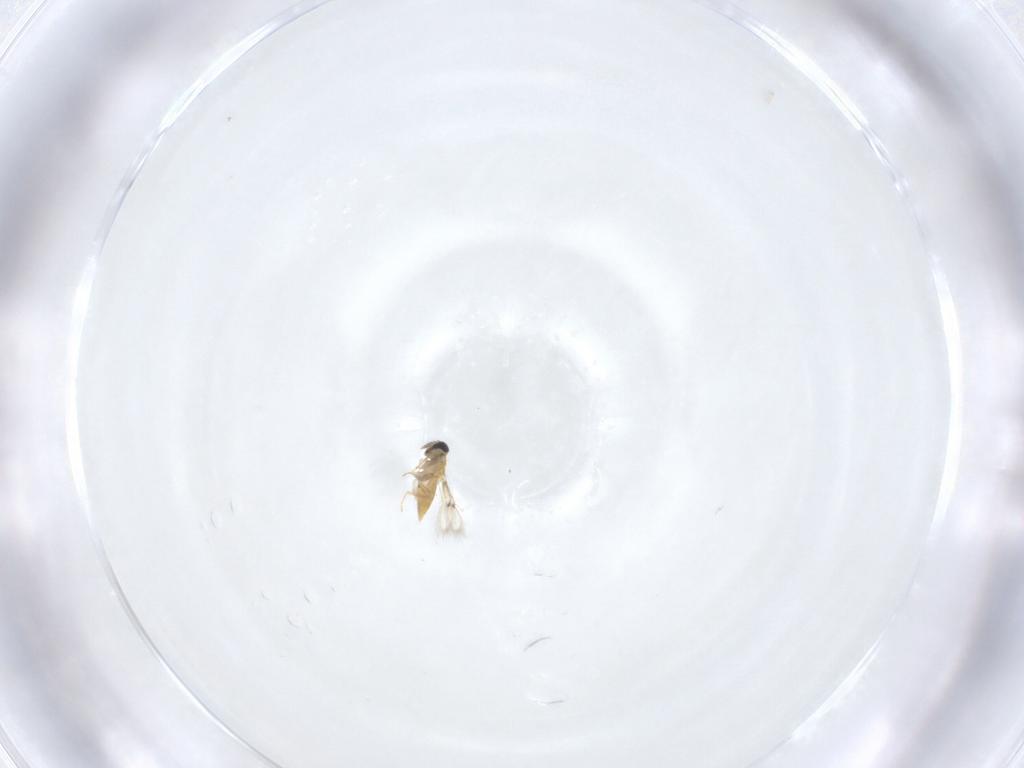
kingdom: Animalia
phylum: Arthropoda
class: Insecta
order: Hymenoptera
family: Trichogrammatidae
